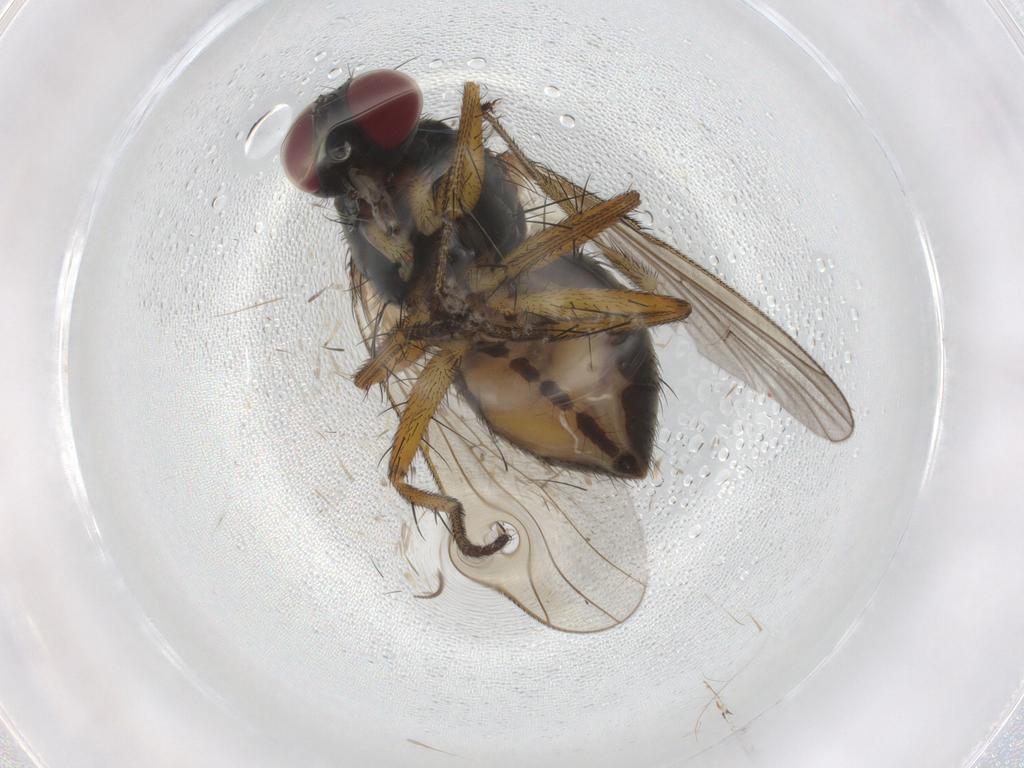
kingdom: Animalia
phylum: Arthropoda
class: Insecta
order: Diptera
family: Muscidae
